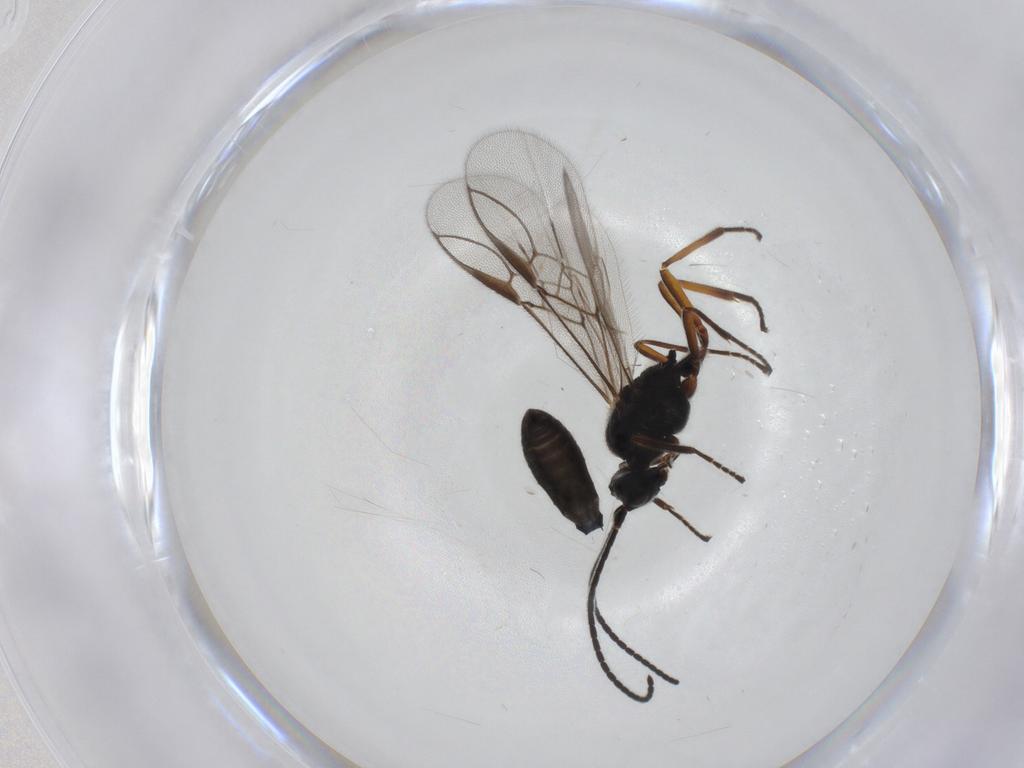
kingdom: Animalia
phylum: Arthropoda
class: Insecta
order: Hymenoptera
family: Braconidae
